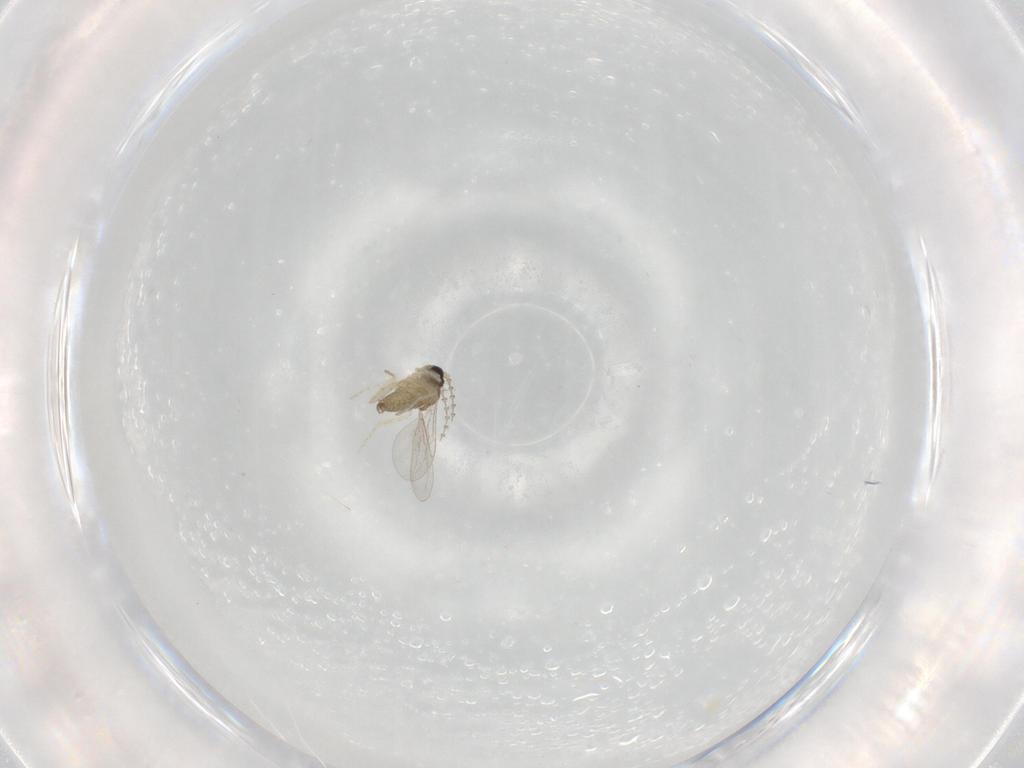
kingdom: Animalia
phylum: Arthropoda
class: Insecta
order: Diptera
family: Cecidomyiidae
